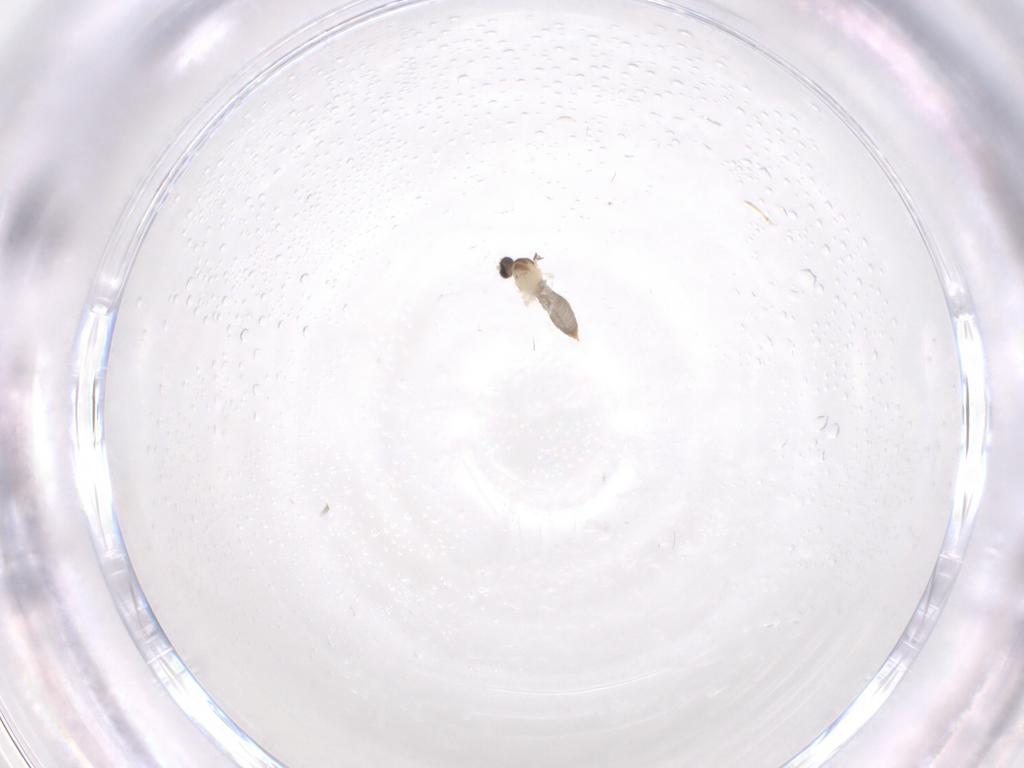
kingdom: Animalia
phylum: Arthropoda
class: Insecta
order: Diptera
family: Cecidomyiidae
